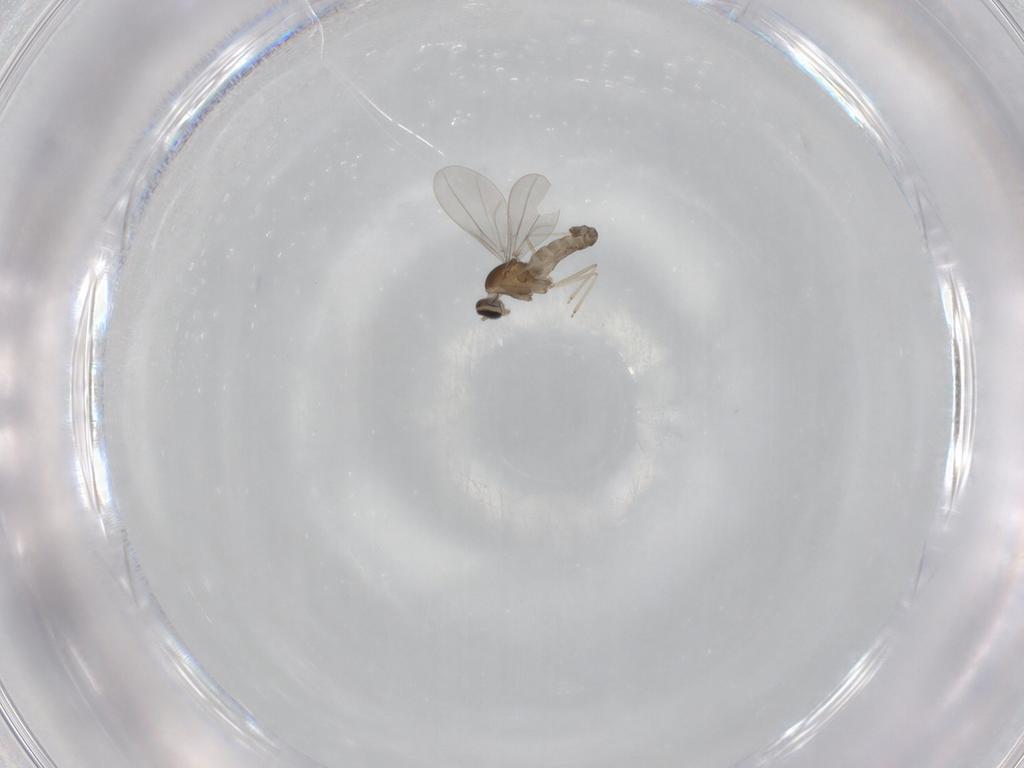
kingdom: Animalia
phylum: Arthropoda
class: Insecta
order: Diptera
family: Cecidomyiidae
